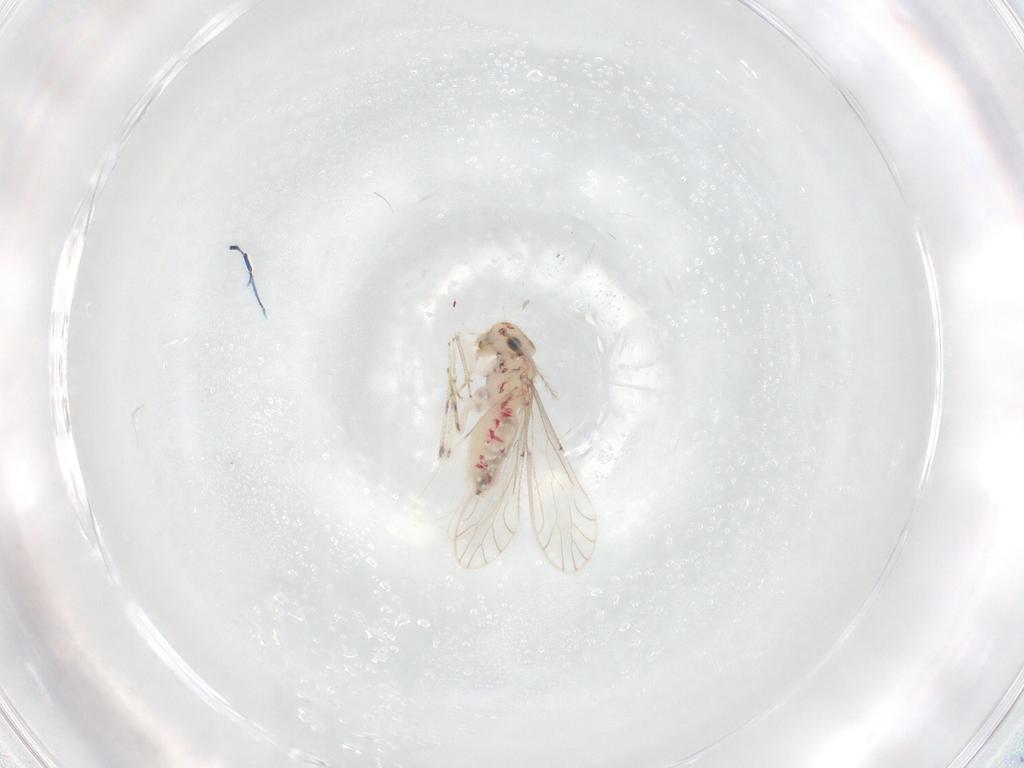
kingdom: Animalia
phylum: Arthropoda
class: Insecta
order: Psocodea
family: Caeciliusidae
